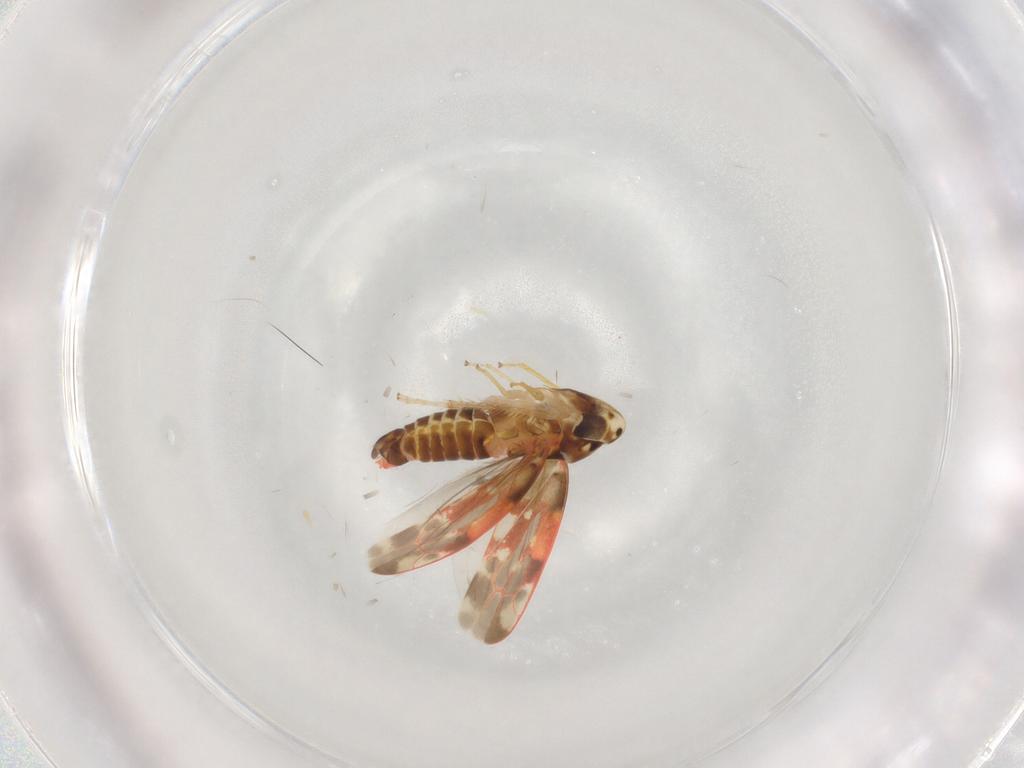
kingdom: Animalia
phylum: Arthropoda
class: Insecta
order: Hemiptera
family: Cicadellidae
